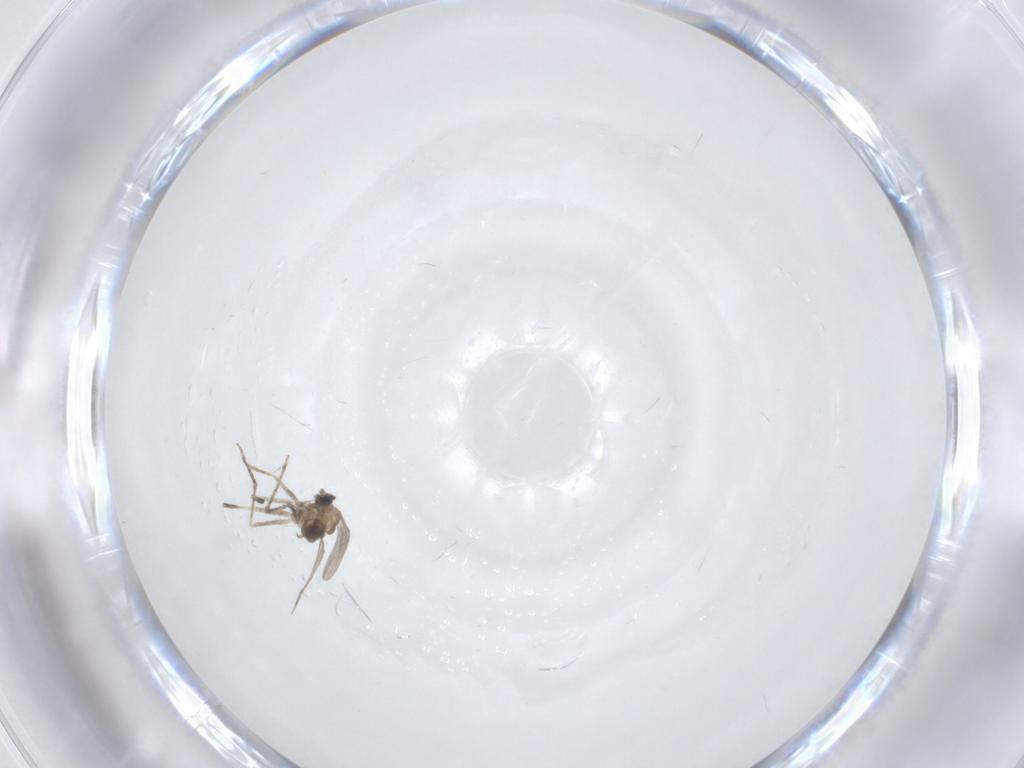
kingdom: Animalia
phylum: Arthropoda
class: Insecta
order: Diptera
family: Cecidomyiidae
